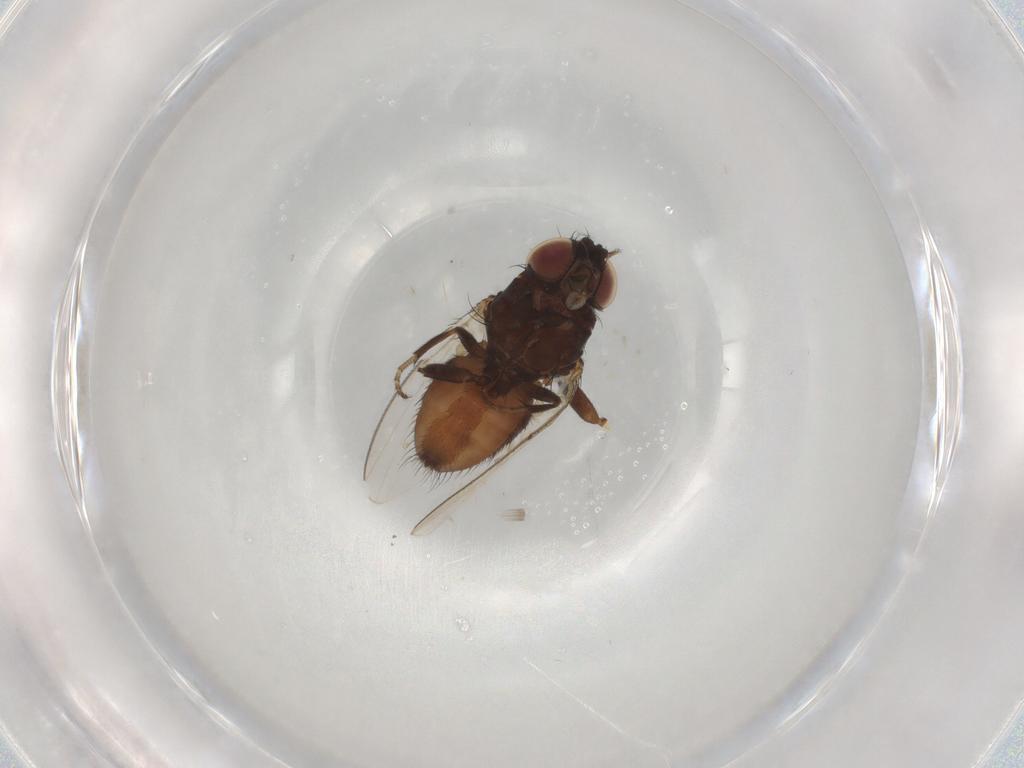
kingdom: Animalia
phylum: Arthropoda
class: Insecta
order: Diptera
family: Milichiidae
